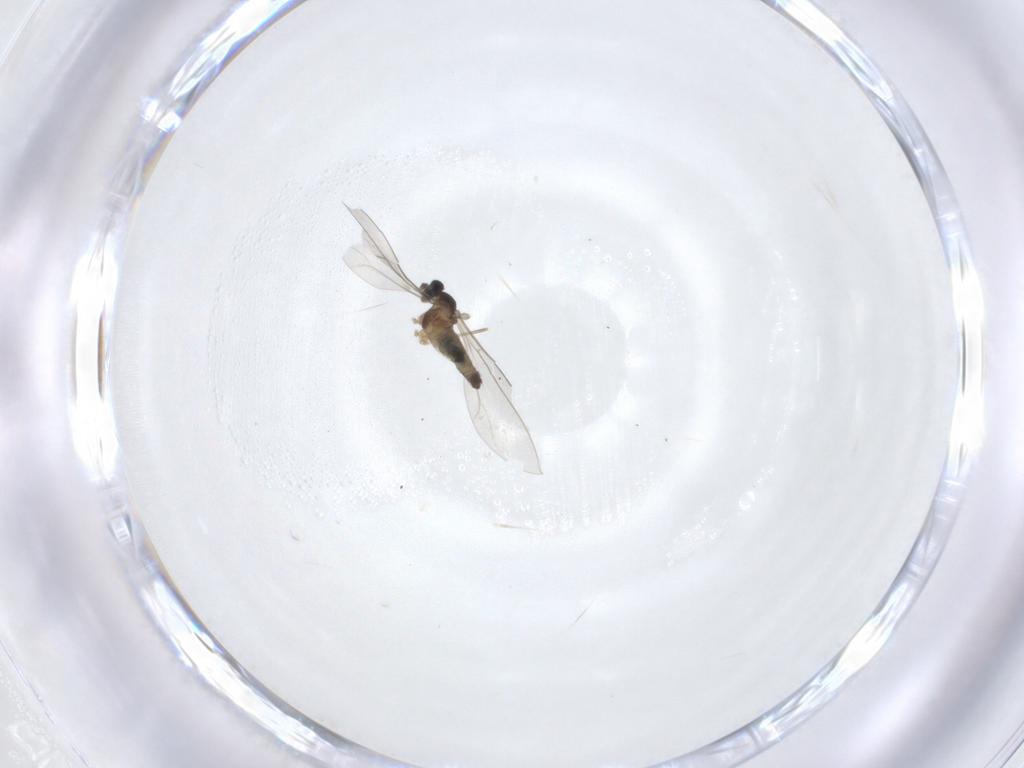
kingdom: Animalia
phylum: Arthropoda
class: Insecta
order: Diptera
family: Cecidomyiidae
